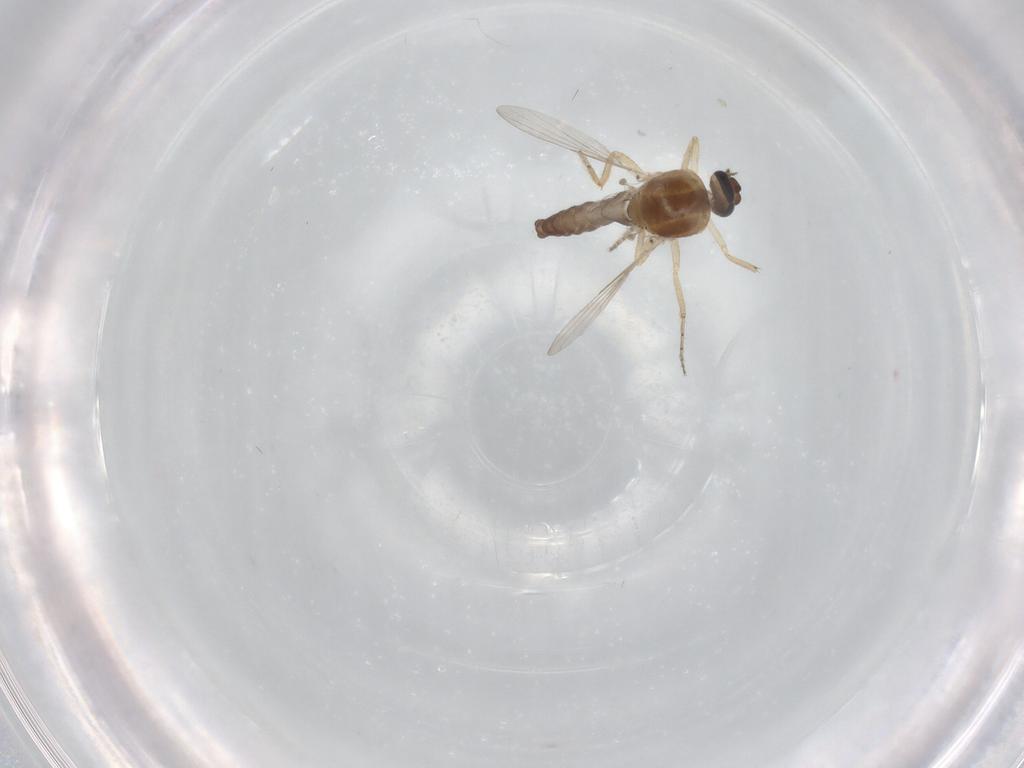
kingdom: Animalia
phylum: Arthropoda
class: Insecta
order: Diptera
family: Ceratopogonidae
